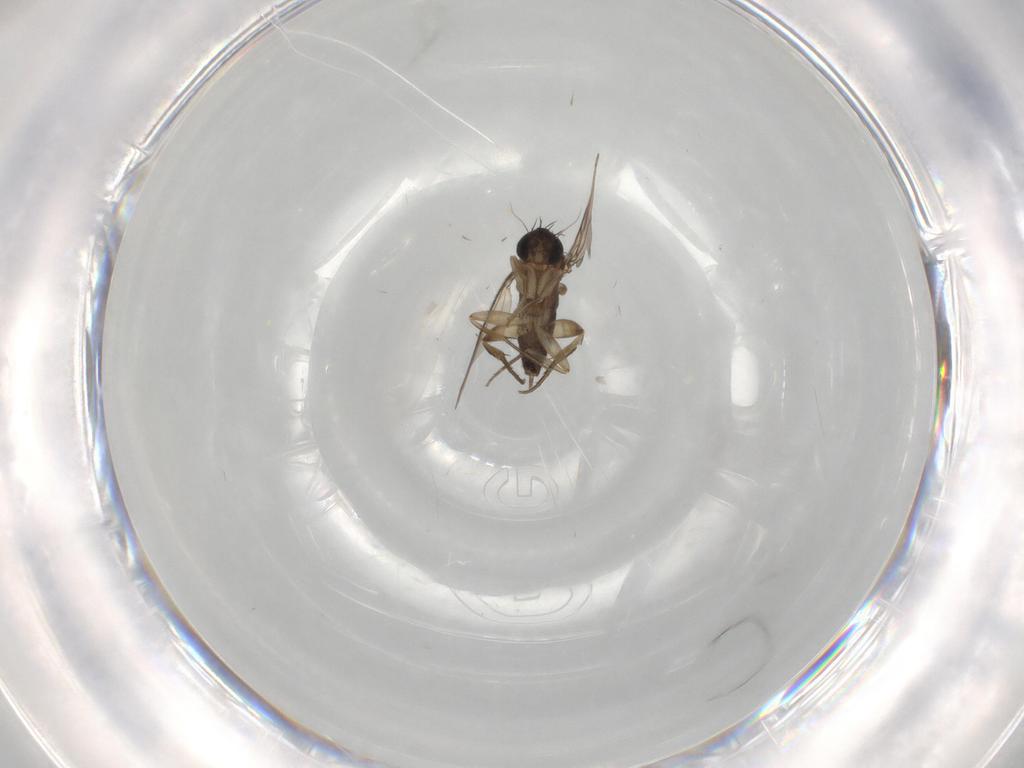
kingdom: Animalia
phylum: Arthropoda
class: Insecta
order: Diptera
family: Phoridae
